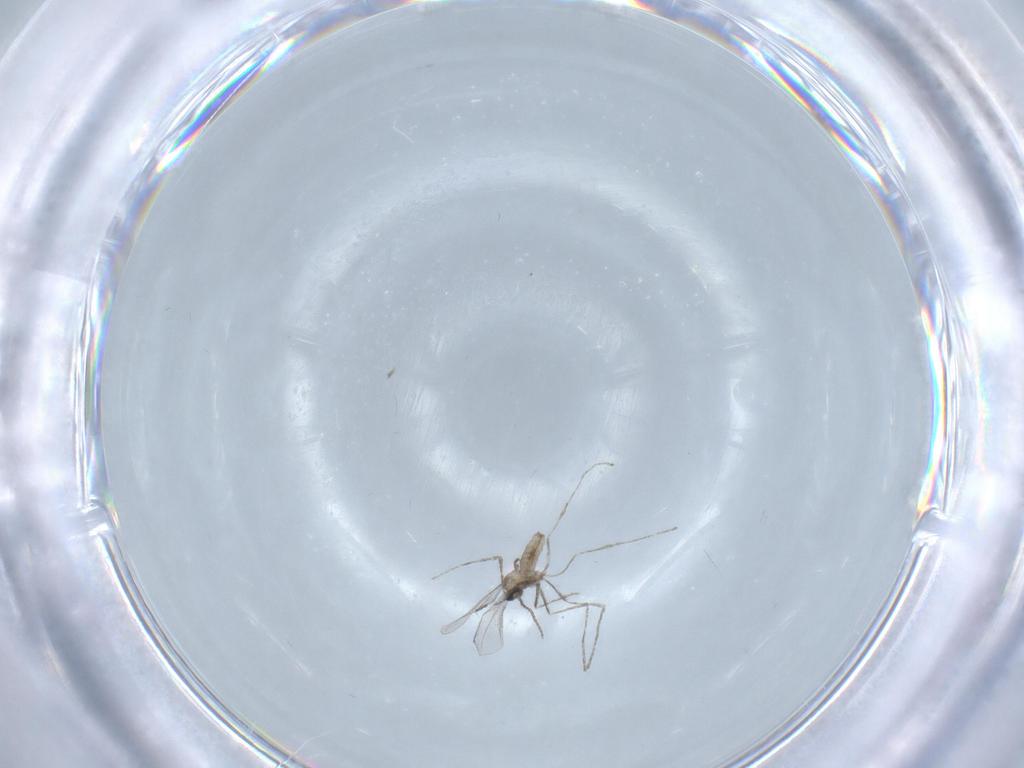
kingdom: Animalia
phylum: Arthropoda
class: Insecta
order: Diptera
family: Cecidomyiidae
